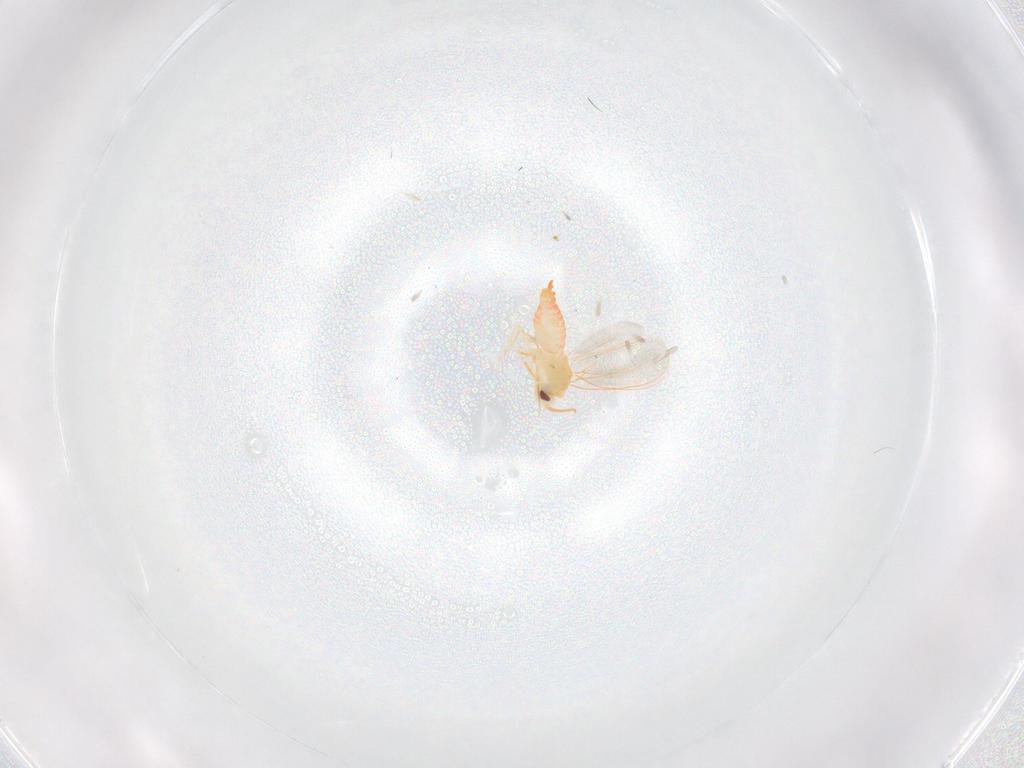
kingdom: Animalia
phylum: Arthropoda
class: Insecta
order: Hemiptera
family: Aleyrodidae
